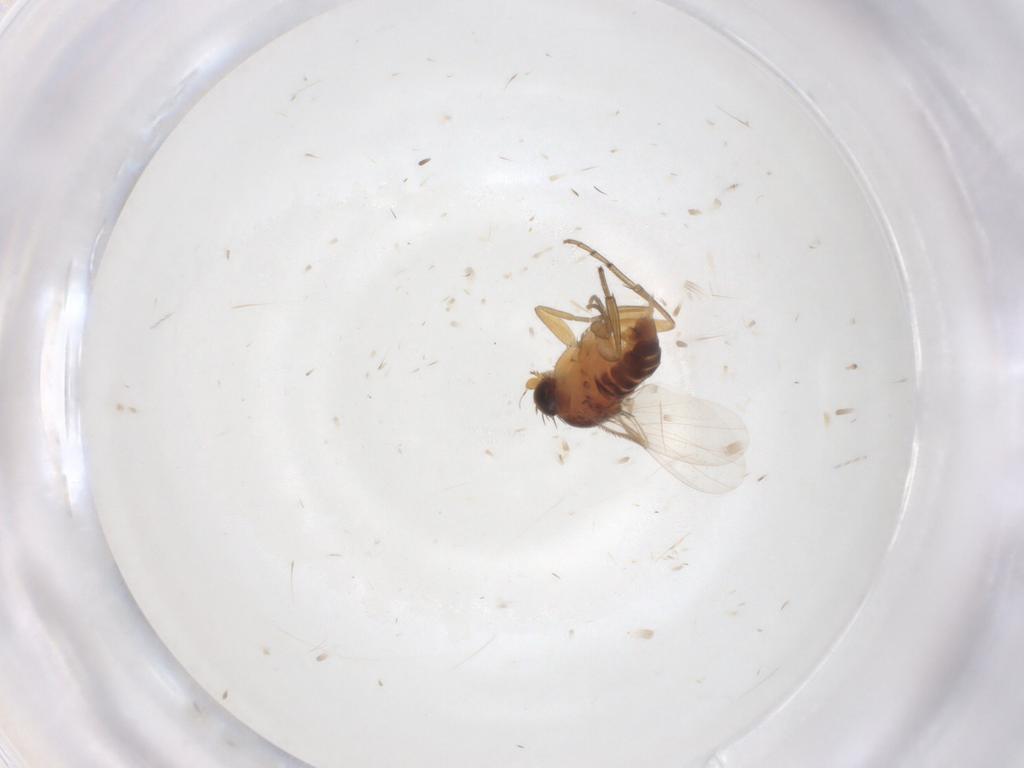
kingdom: Animalia
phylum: Arthropoda
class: Insecta
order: Diptera
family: Phoridae
